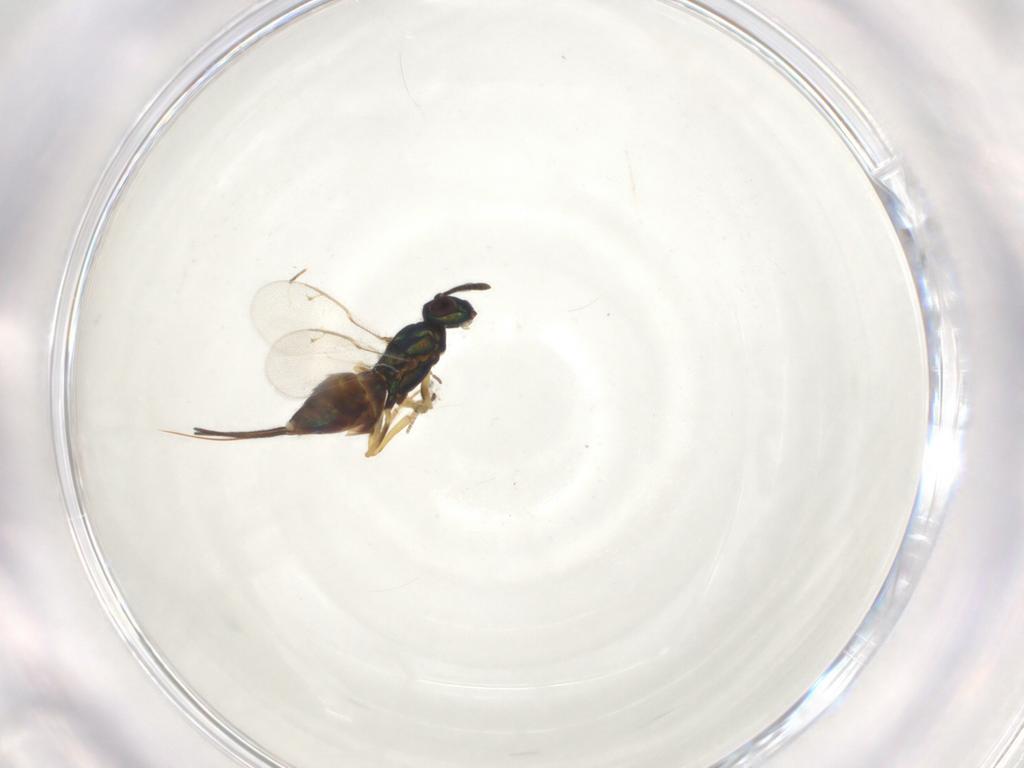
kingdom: Animalia
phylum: Arthropoda
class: Insecta
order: Hymenoptera
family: Eupelmidae
